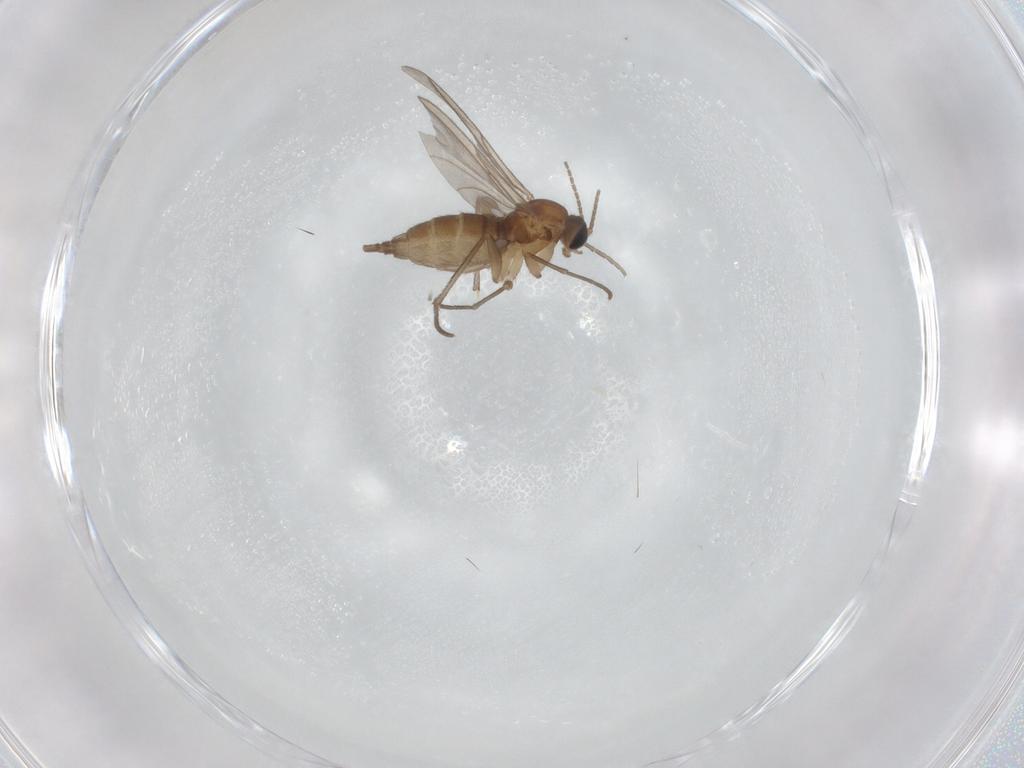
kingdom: Animalia
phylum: Arthropoda
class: Insecta
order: Diptera
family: Sciaridae
